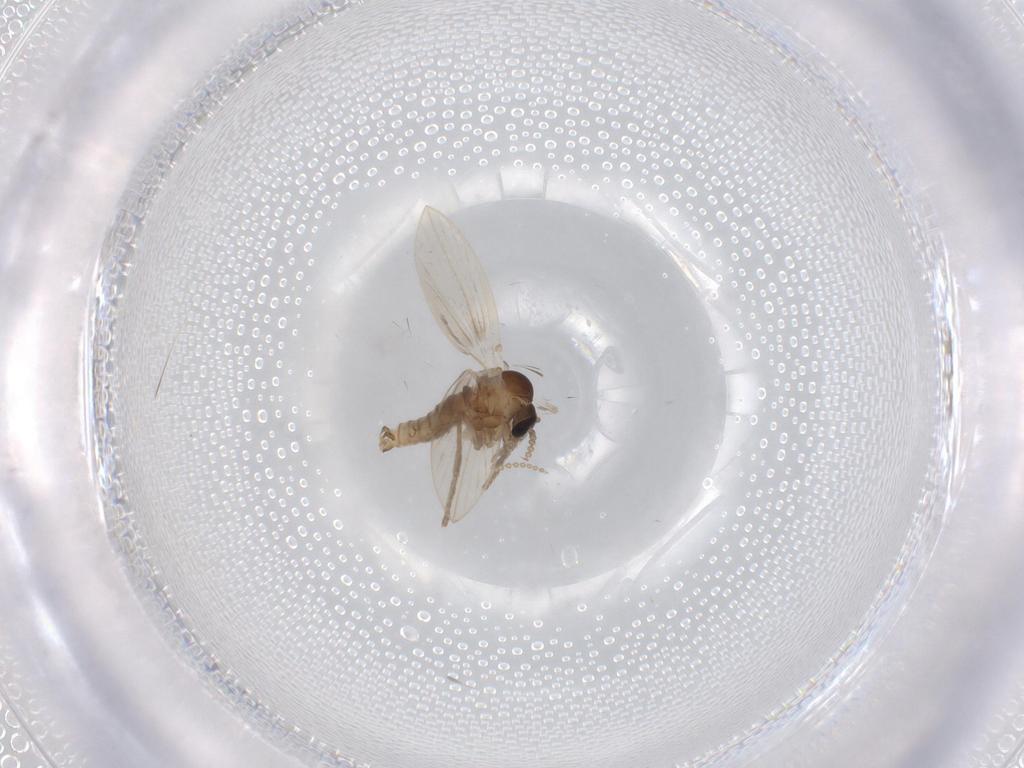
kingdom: Animalia
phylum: Arthropoda
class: Insecta
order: Diptera
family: Psychodidae
